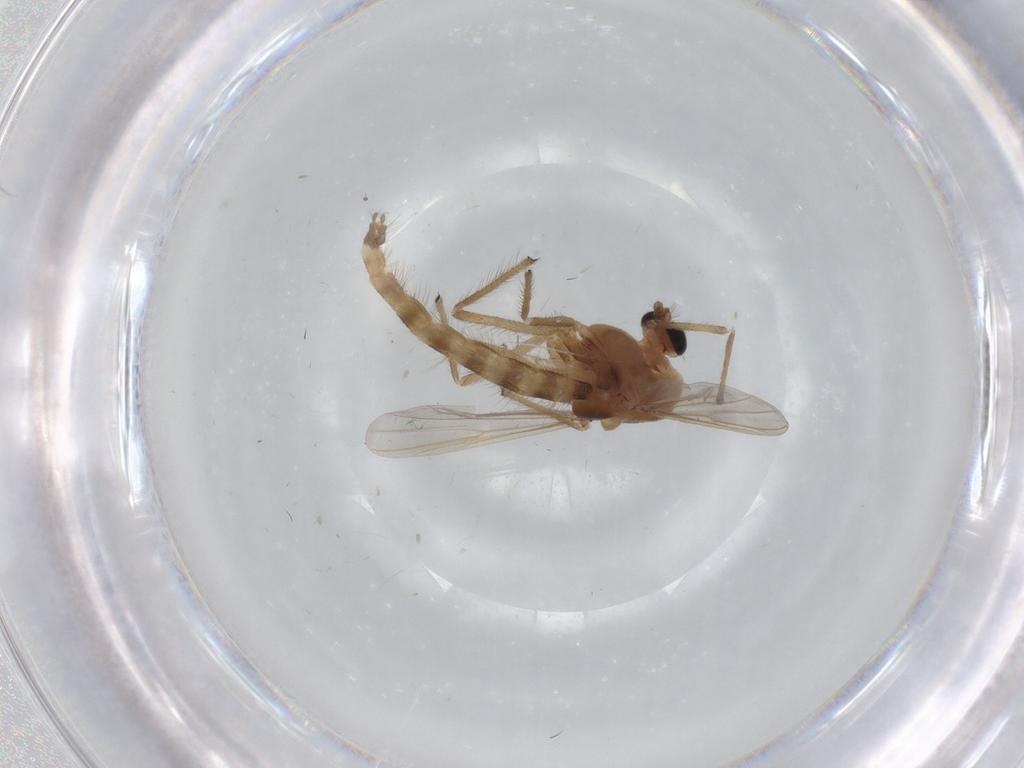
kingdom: Animalia
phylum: Arthropoda
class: Insecta
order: Diptera
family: Chironomidae
